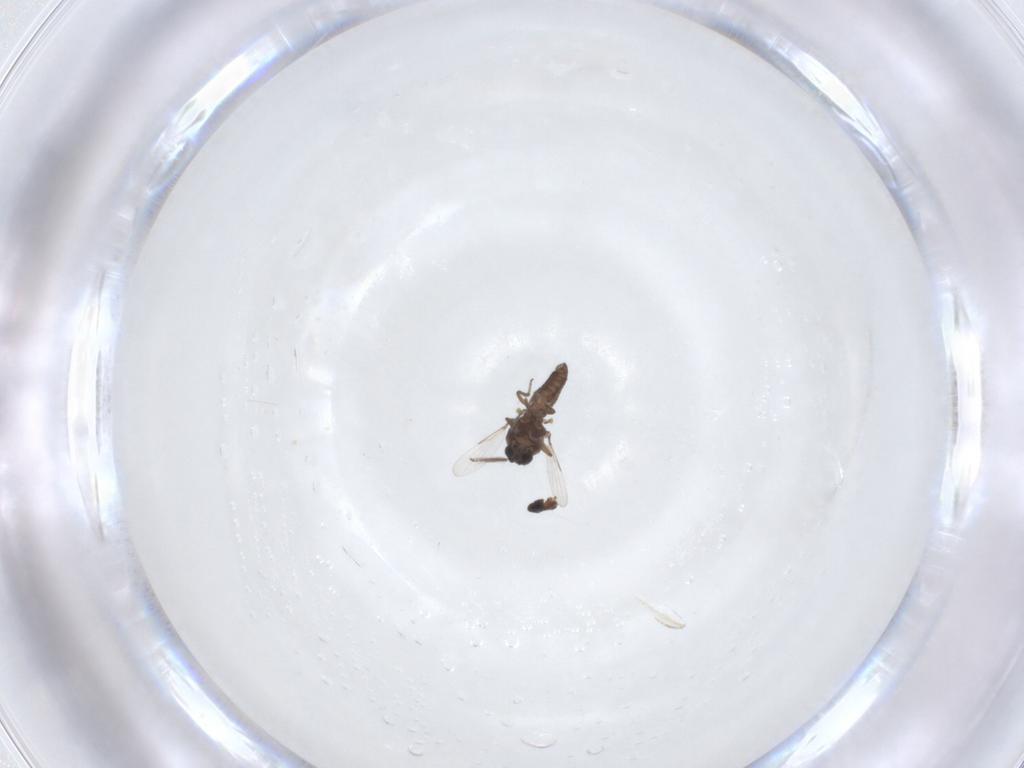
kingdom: Animalia
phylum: Arthropoda
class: Insecta
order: Diptera
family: Ceratopogonidae
